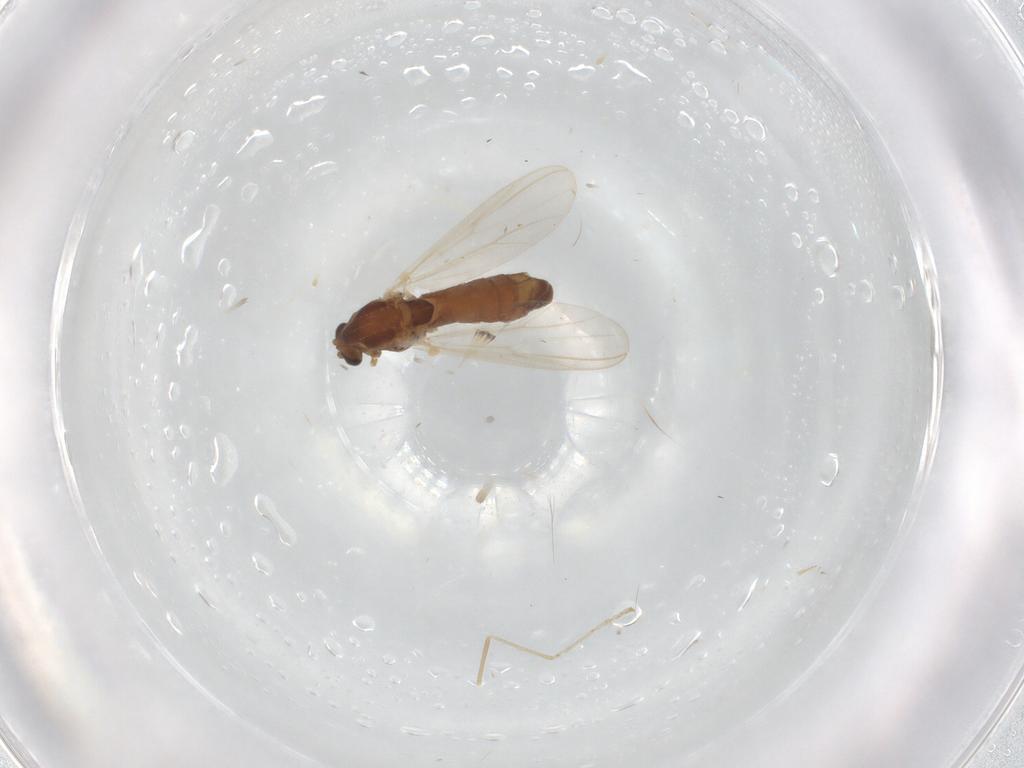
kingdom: Animalia
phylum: Arthropoda
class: Insecta
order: Diptera
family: Chironomidae
